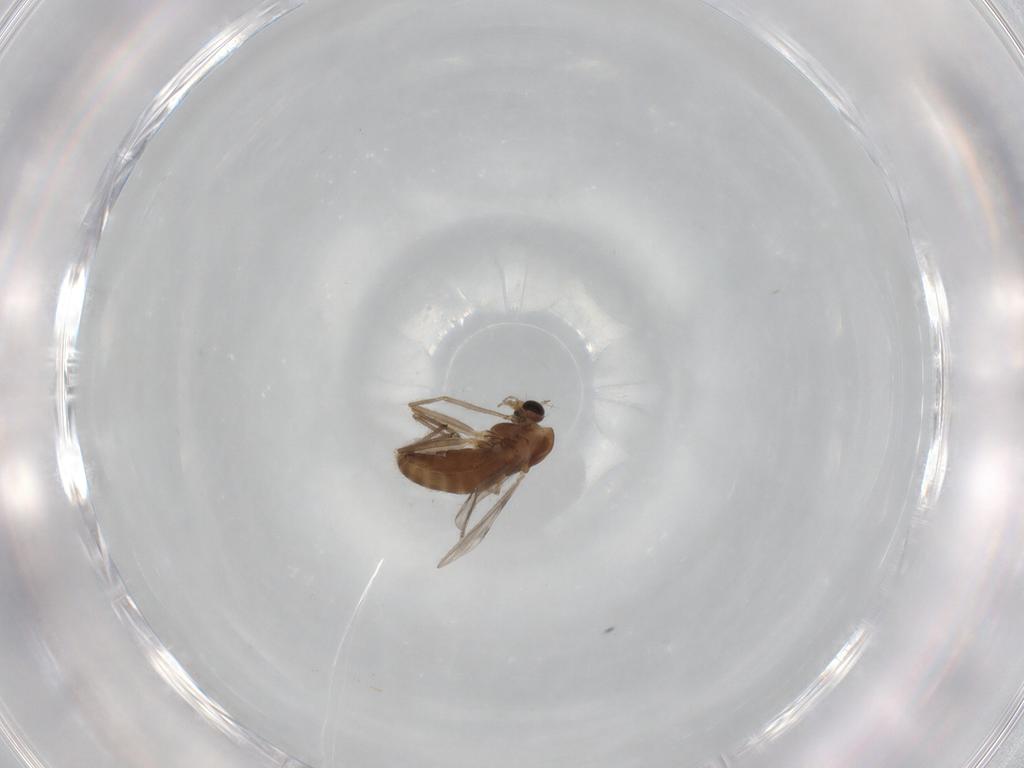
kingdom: Animalia
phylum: Arthropoda
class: Insecta
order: Diptera
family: Chironomidae
